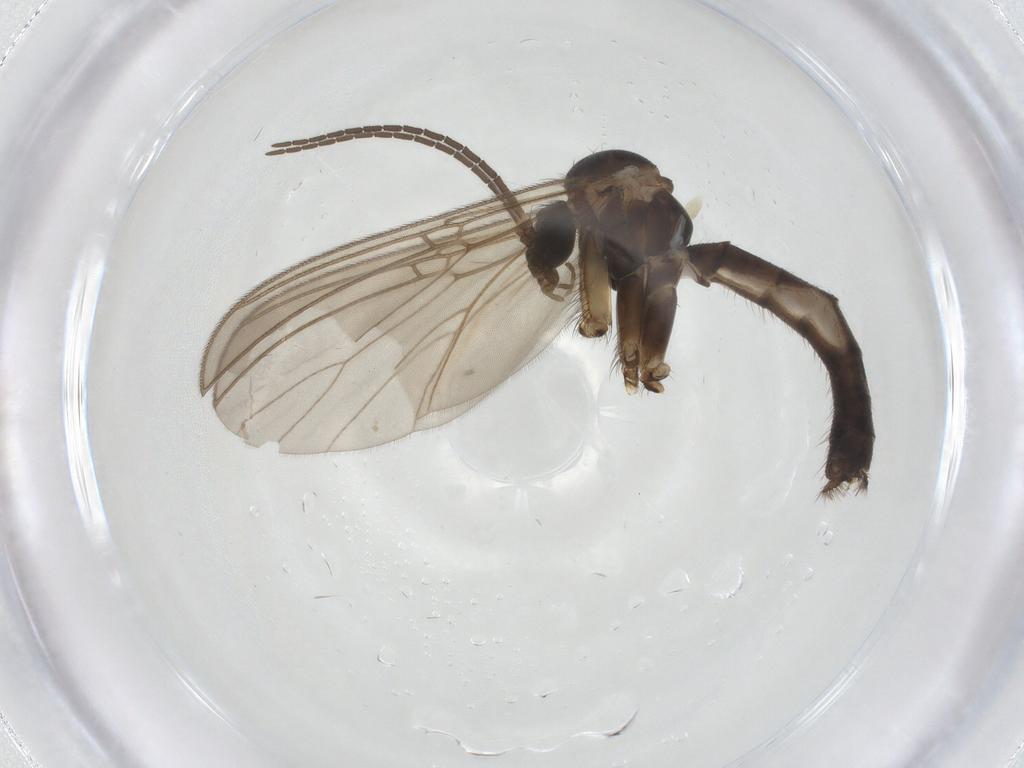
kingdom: Animalia
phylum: Arthropoda
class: Insecta
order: Diptera
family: Mycetophilidae
